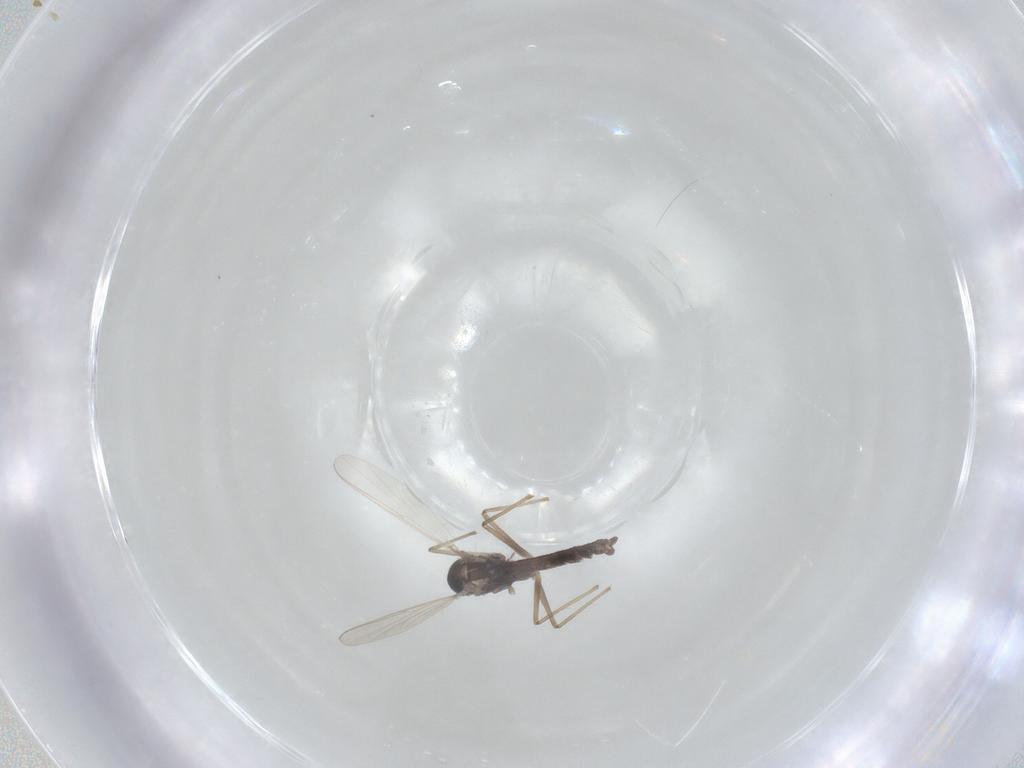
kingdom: Animalia
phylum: Arthropoda
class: Insecta
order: Diptera
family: Chironomidae
